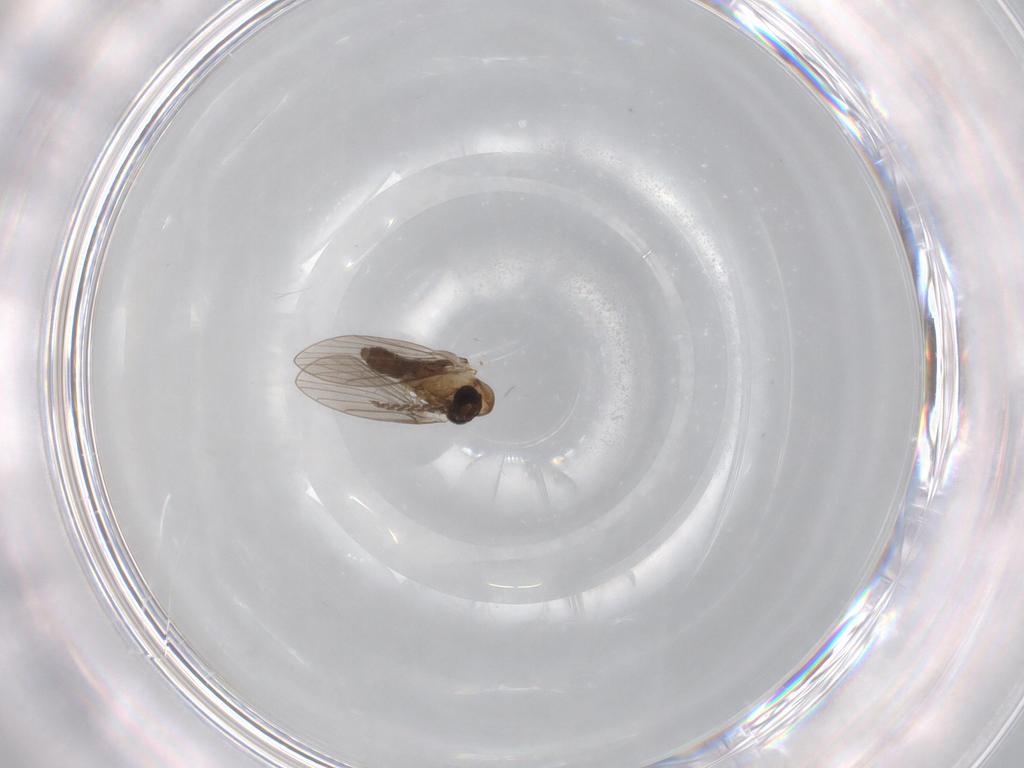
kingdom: Animalia
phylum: Arthropoda
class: Insecta
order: Diptera
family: Cecidomyiidae
